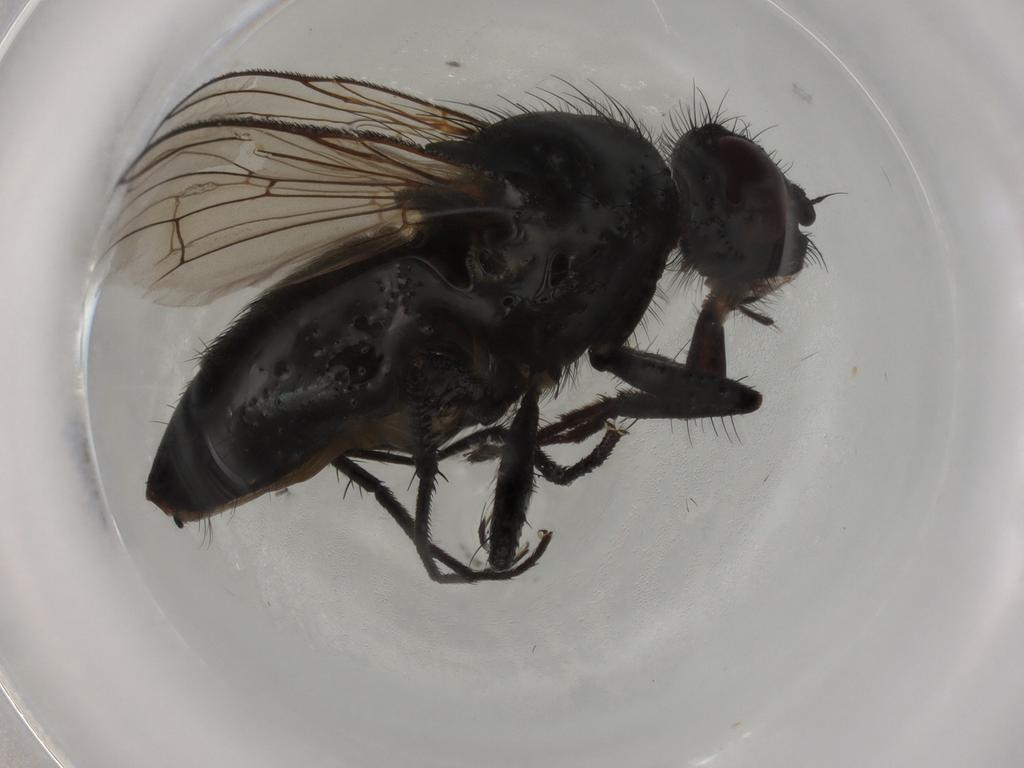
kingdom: Animalia
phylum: Arthropoda
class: Insecta
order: Diptera
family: Muscidae
